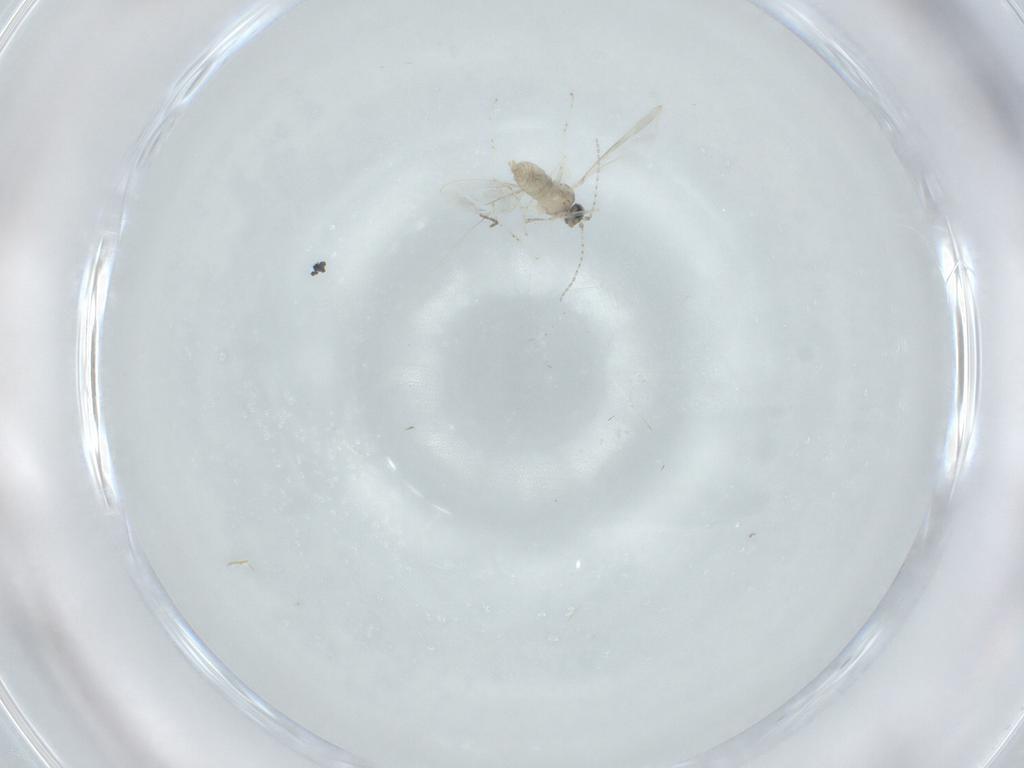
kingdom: Animalia
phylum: Arthropoda
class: Insecta
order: Diptera
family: Cecidomyiidae
